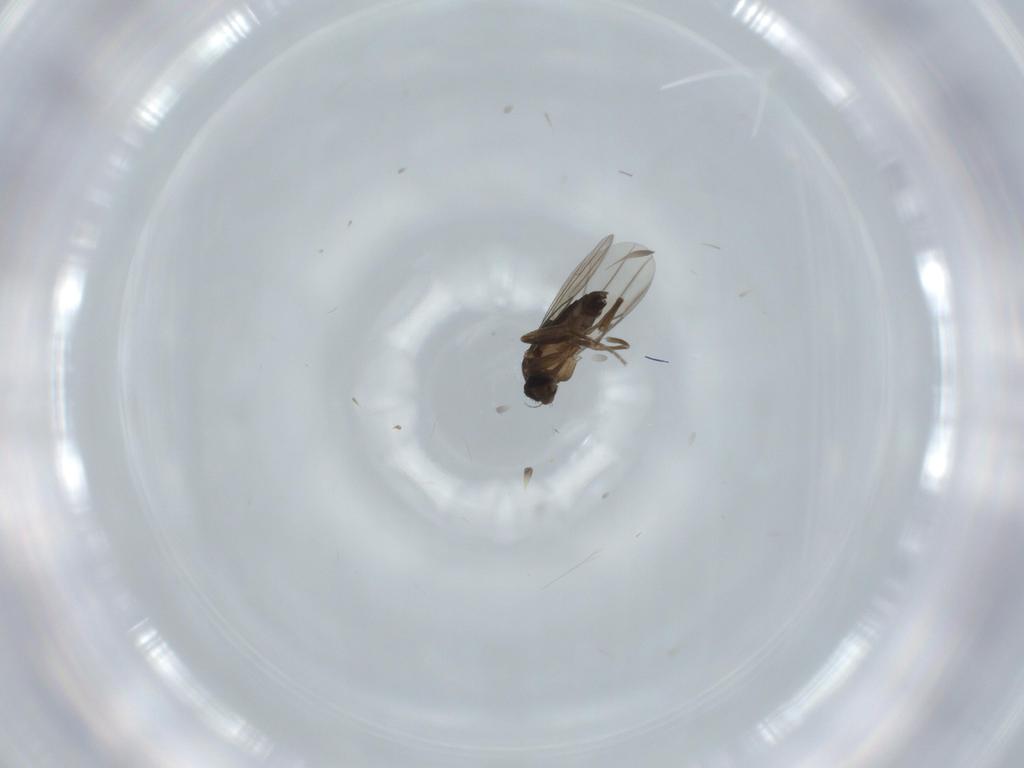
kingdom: Animalia
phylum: Arthropoda
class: Insecta
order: Diptera
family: Phoridae
